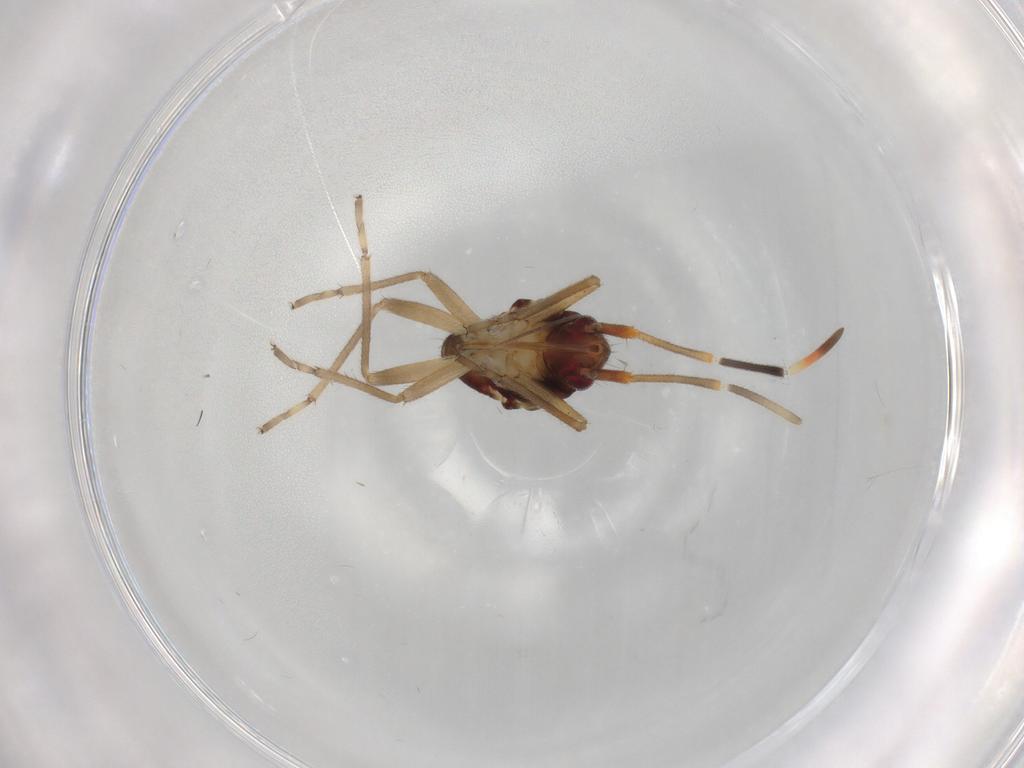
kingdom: Animalia
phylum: Arthropoda
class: Insecta
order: Hemiptera
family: Rhyparochromidae
